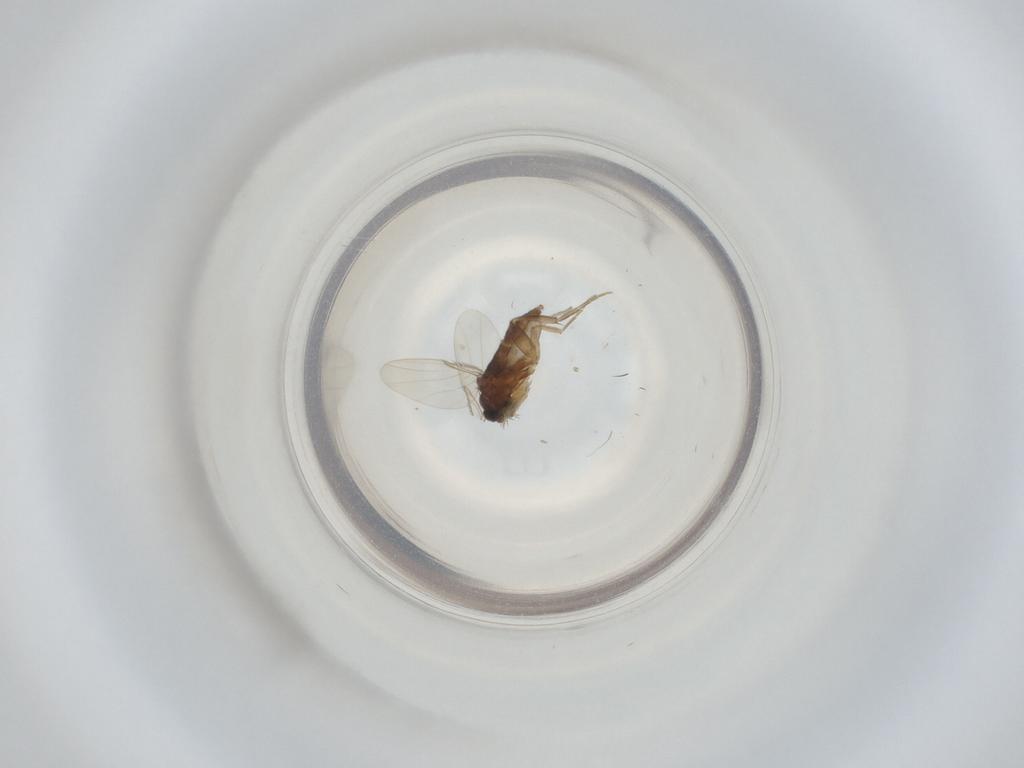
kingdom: Animalia
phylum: Arthropoda
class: Insecta
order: Diptera
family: Phoridae
